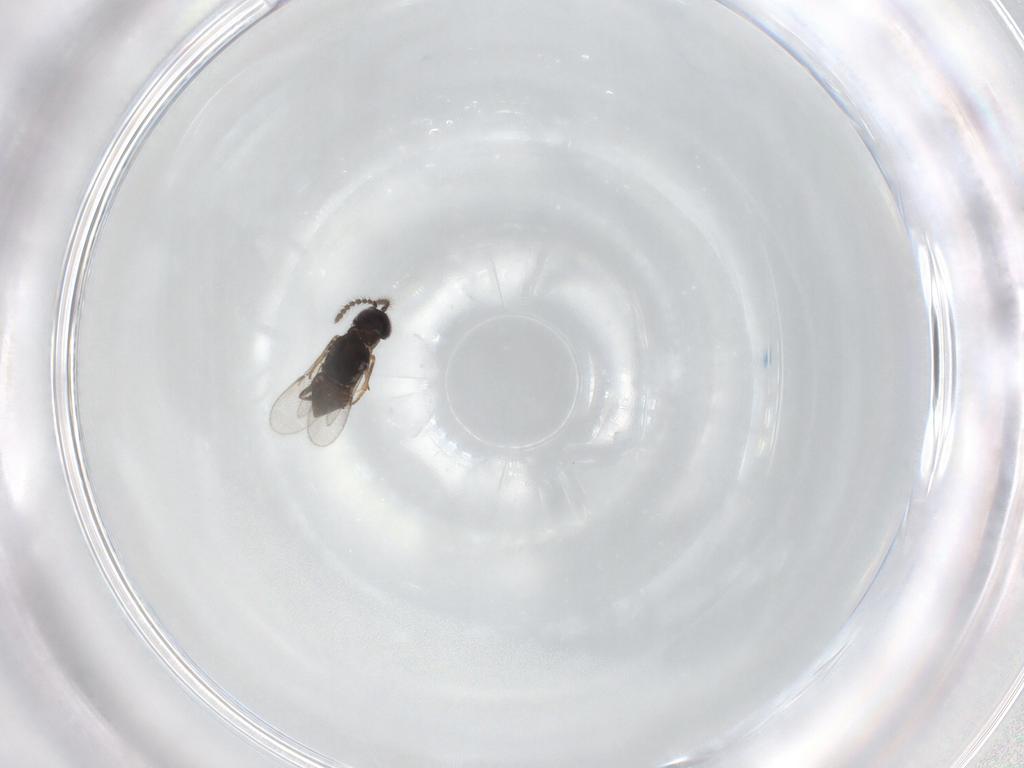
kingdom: Animalia
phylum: Arthropoda
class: Insecta
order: Hymenoptera
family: Encyrtidae
